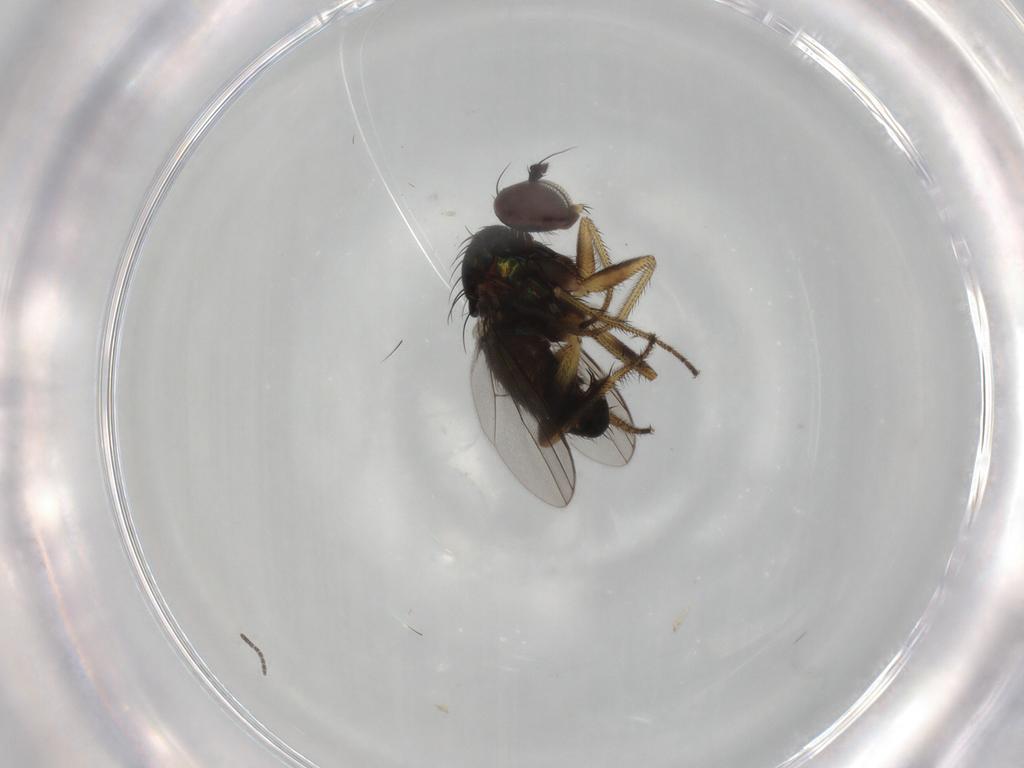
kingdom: Animalia
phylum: Arthropoda
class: Insecta
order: Diptera
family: Dolichopodidae
